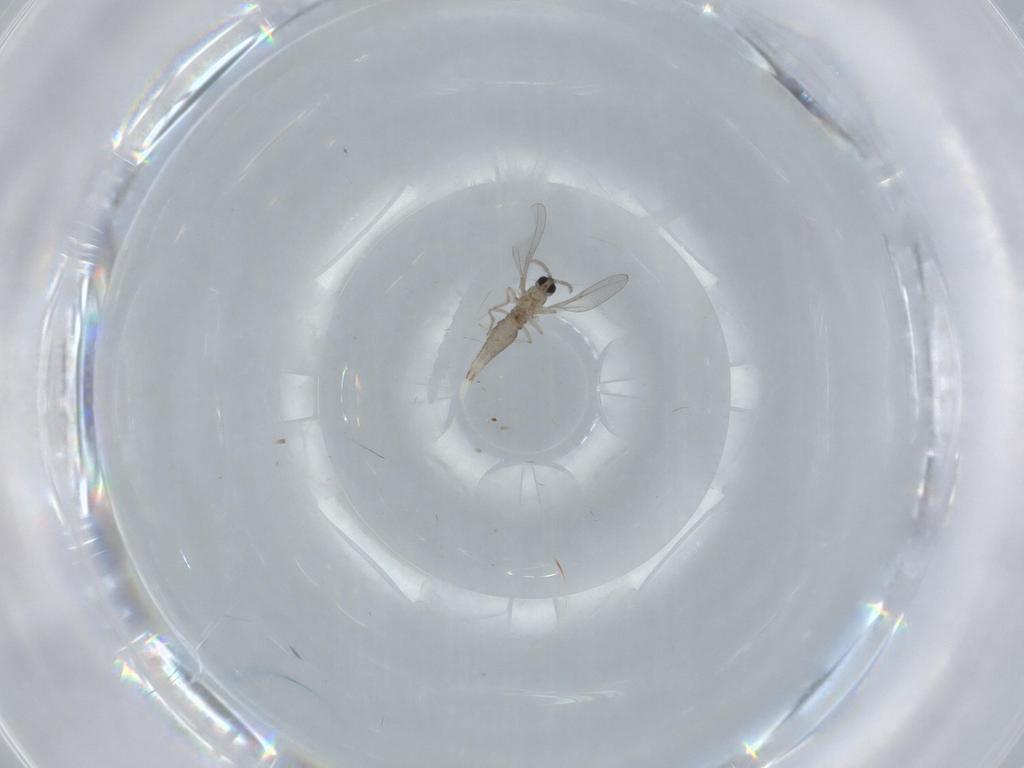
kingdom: Animalia
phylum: Arthropoda
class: Insecta
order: Diptera
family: Cecidomyiidae
